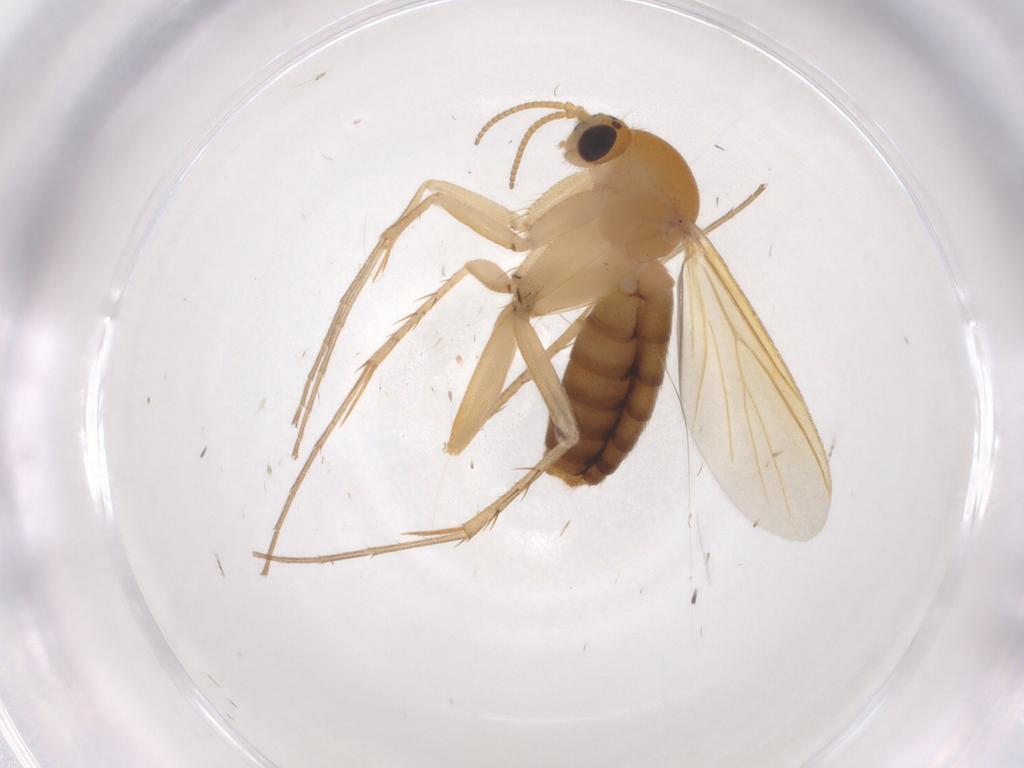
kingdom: Animalia
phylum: Arthropoda
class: Insecta
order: Diptera
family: Mycetophilidae
